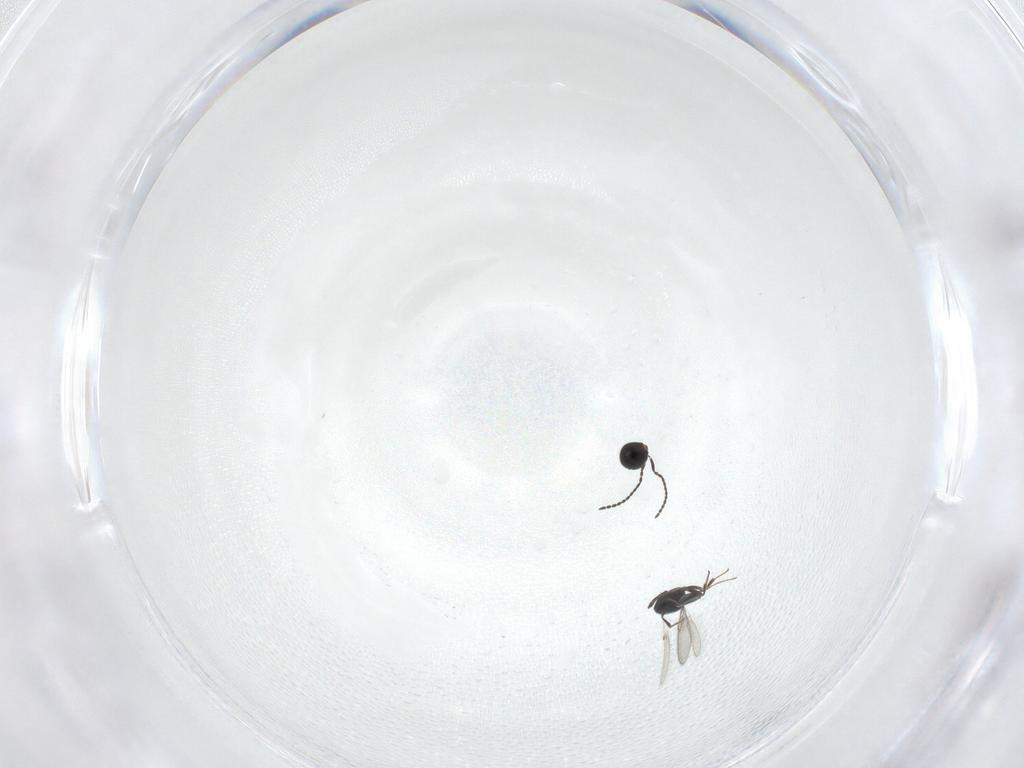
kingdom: Animalia
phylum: Arthropoda
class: Insecta
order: Hymenoptera
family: Scelionidae
